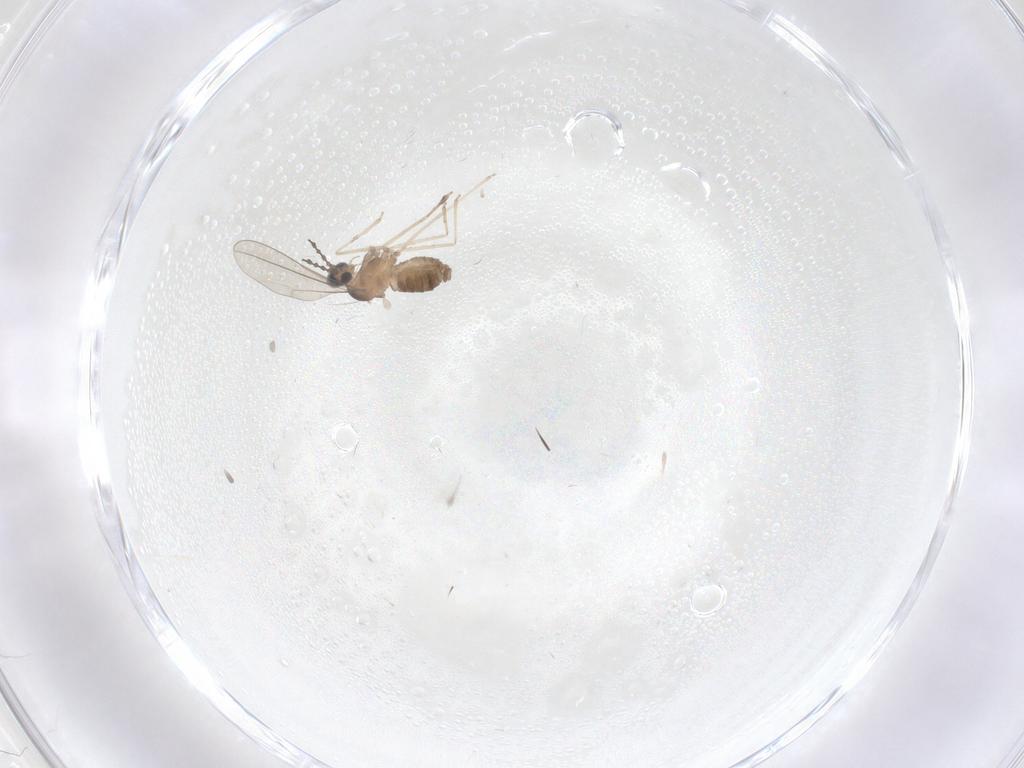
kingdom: Animalia
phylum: Arthropoda
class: Insecta
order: Diptera
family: Cecidomyiidae
